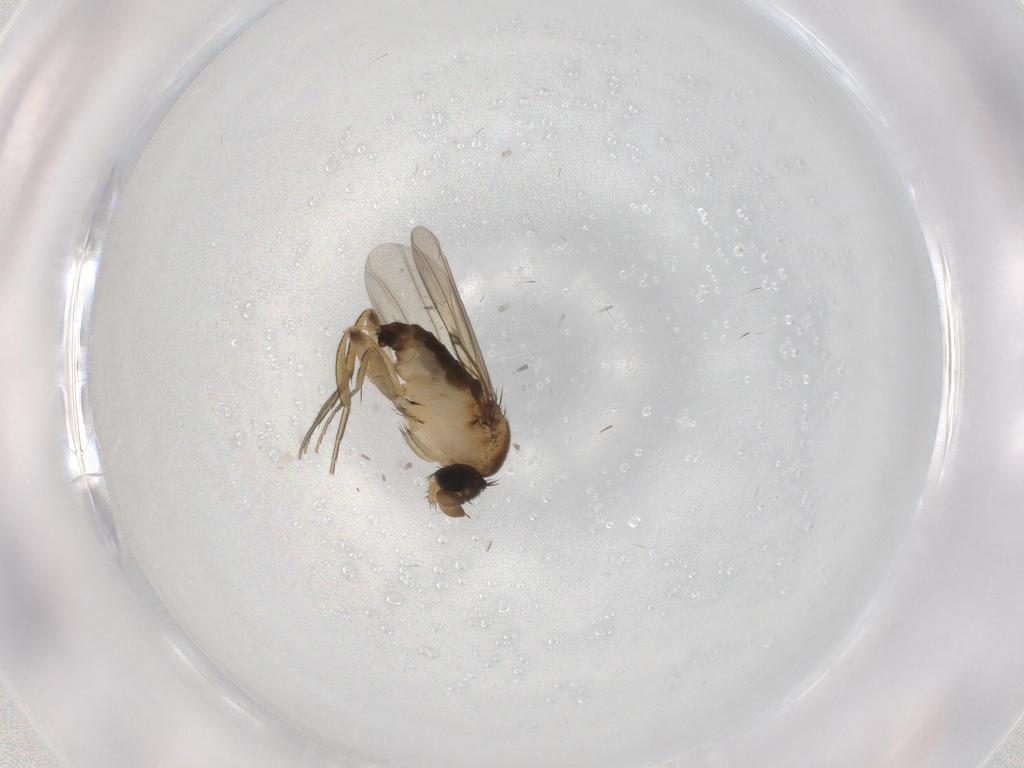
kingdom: Animalia
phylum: Arthropoda
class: Insecta
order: Diptera
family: Phoridae
